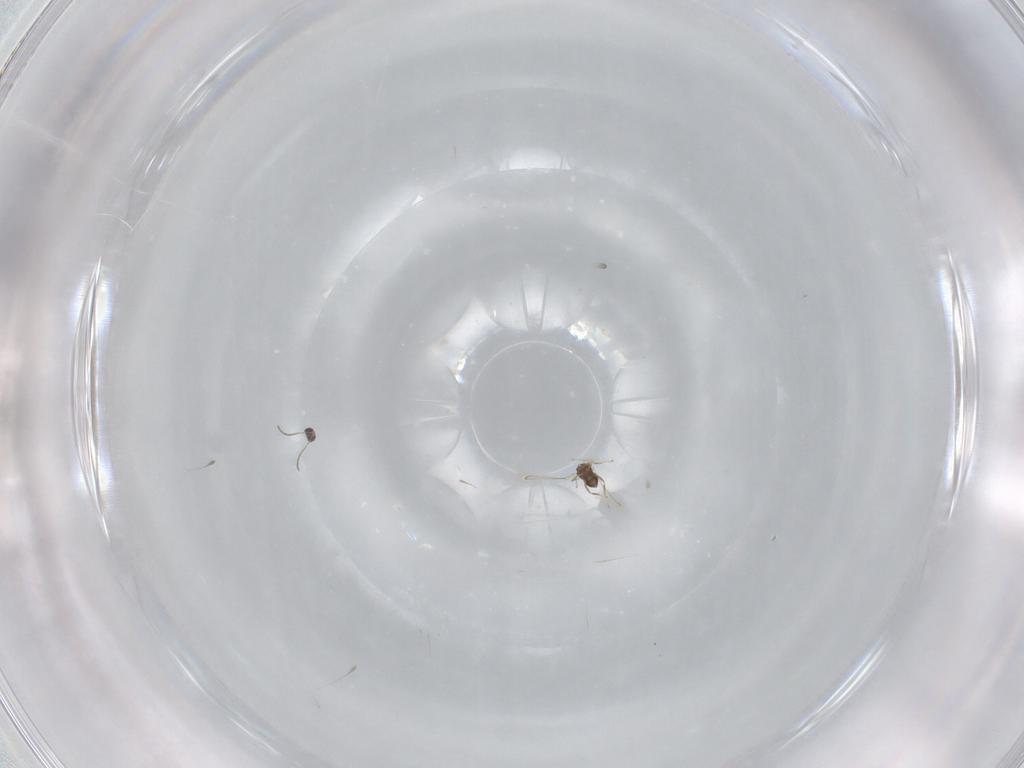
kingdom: Animalia
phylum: Arthropoda
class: Insecta
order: Hymenoptera
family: Braconidae
